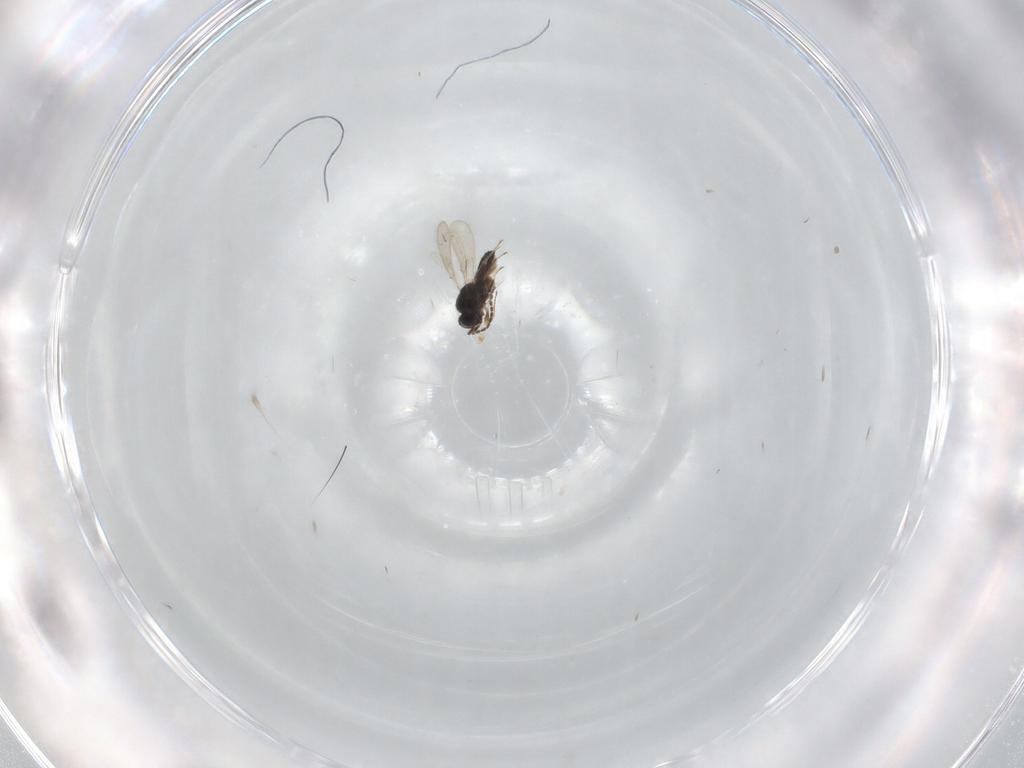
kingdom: Animalia
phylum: Arthropoda
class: Insecta
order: Hymenoptera
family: Scelionidae
